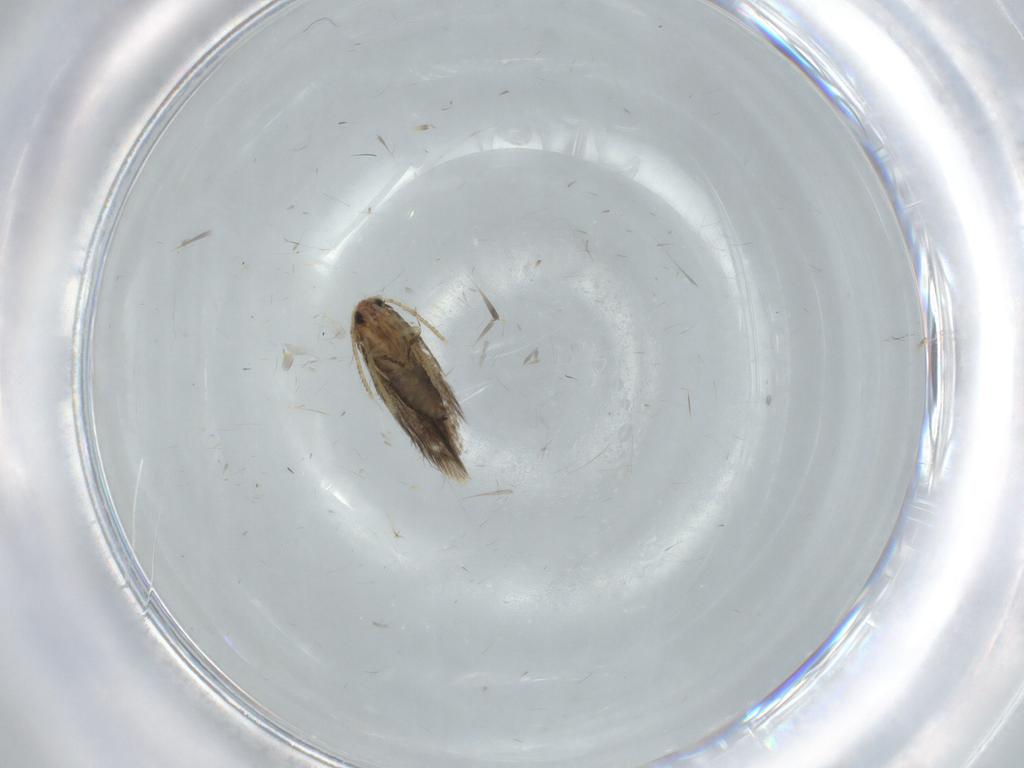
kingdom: Animalia
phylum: Arthropoda
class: Insecta
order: Lepidoptera
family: Copromorphidae
